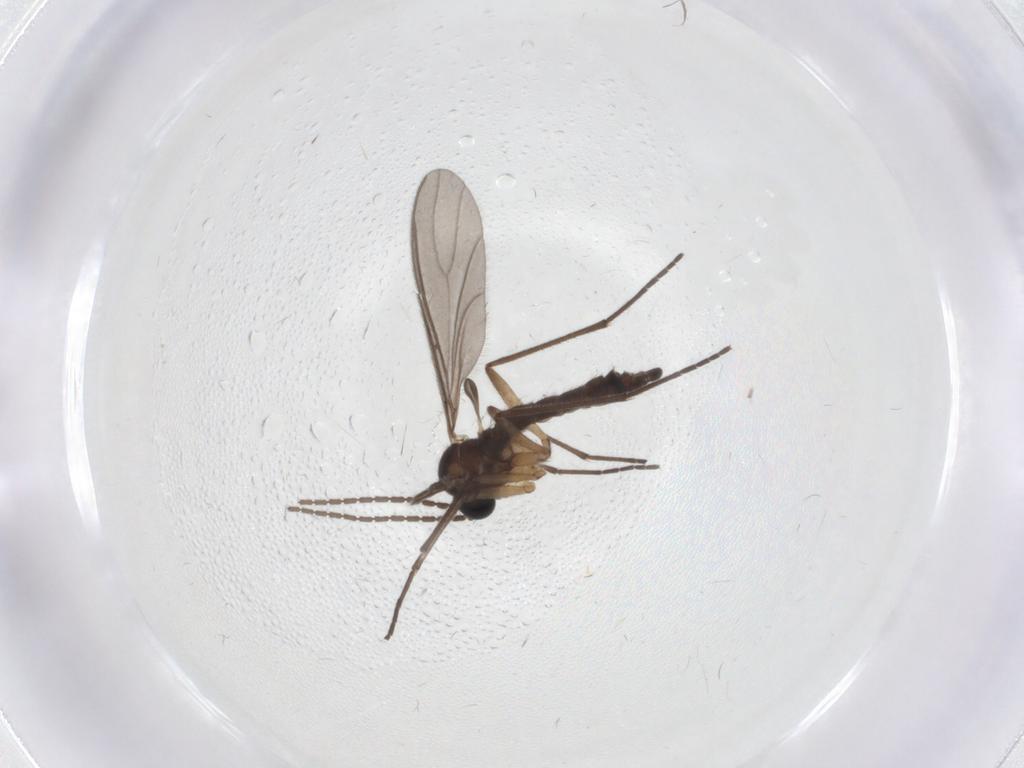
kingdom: Animalia
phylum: Arthropoda
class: Insecta
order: Diptera
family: Sciaridae
